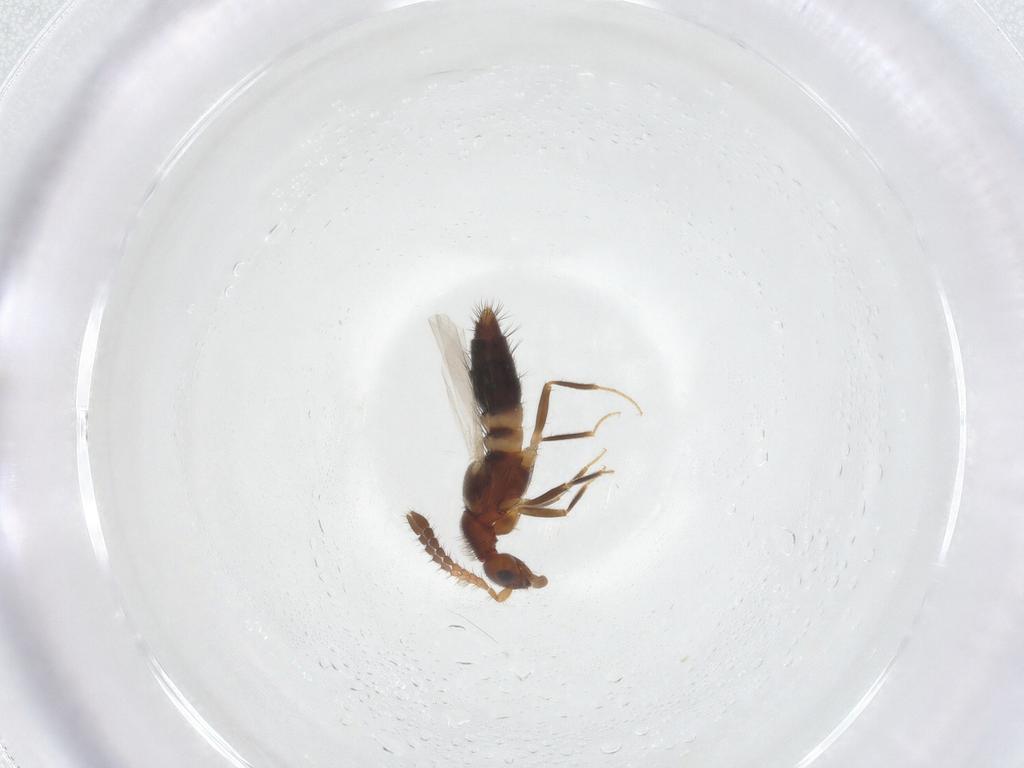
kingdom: Animalia
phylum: Arthropoda
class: Insecta
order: Coleoptera
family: Staphylinidae
